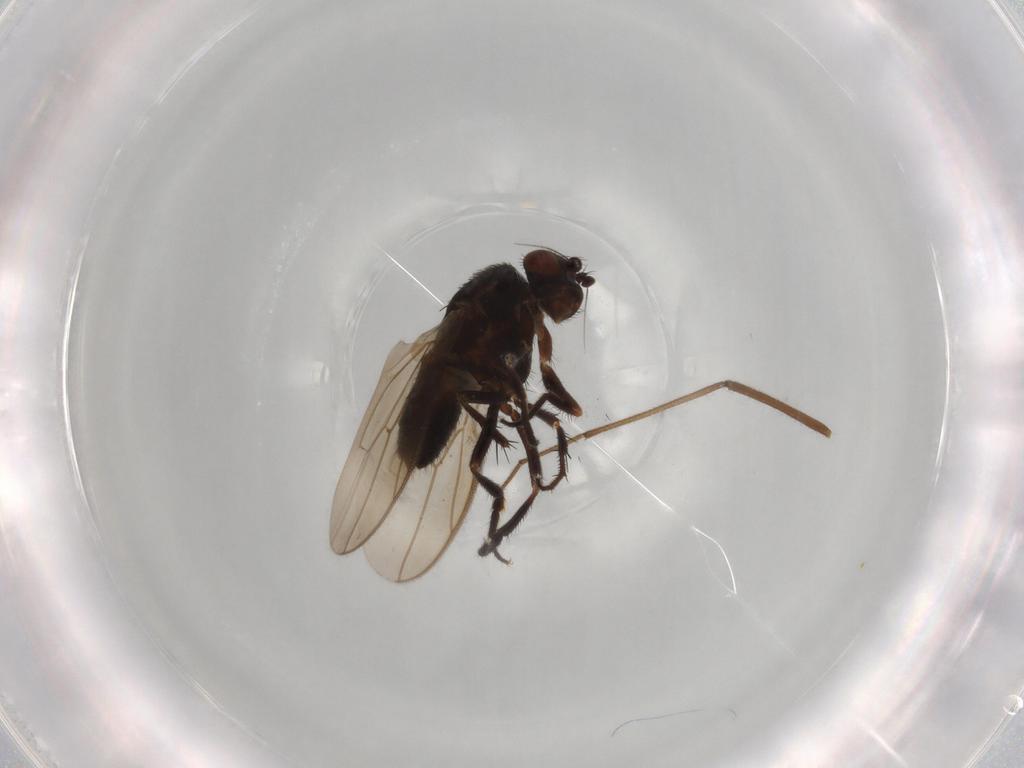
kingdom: Animalia
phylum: Arthropoda
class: Insecta
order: Diptera
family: Sphaeroceridae
